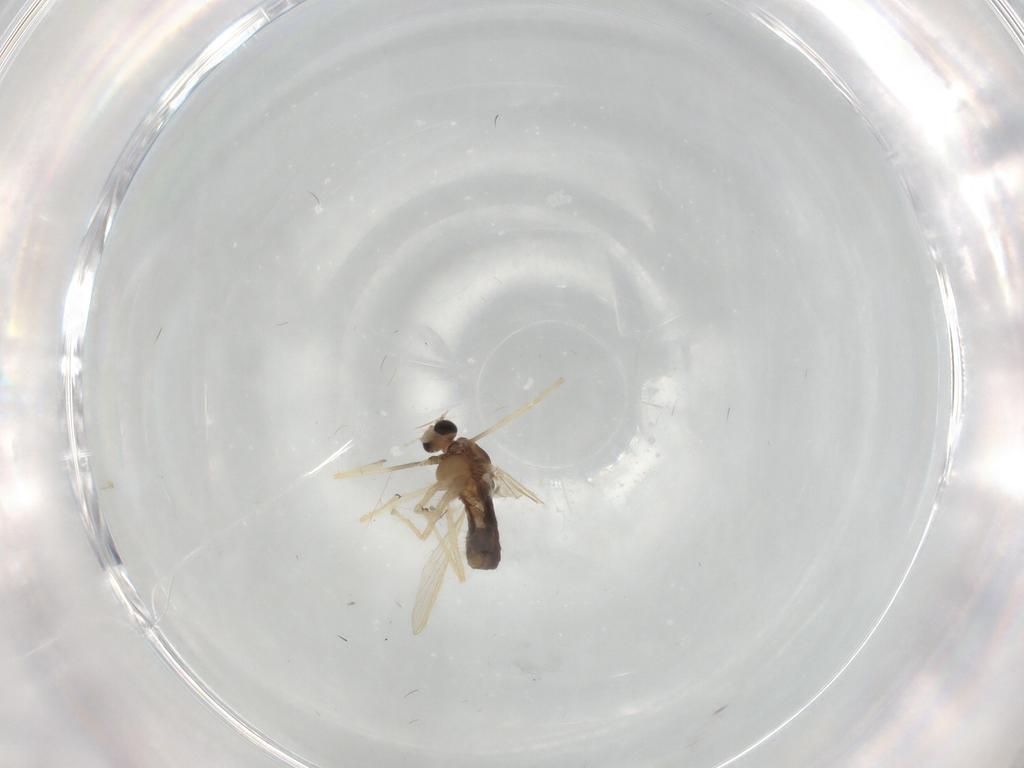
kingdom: Animalia
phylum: Arthropoda
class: Insecta
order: Diptera
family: Chironomidae
